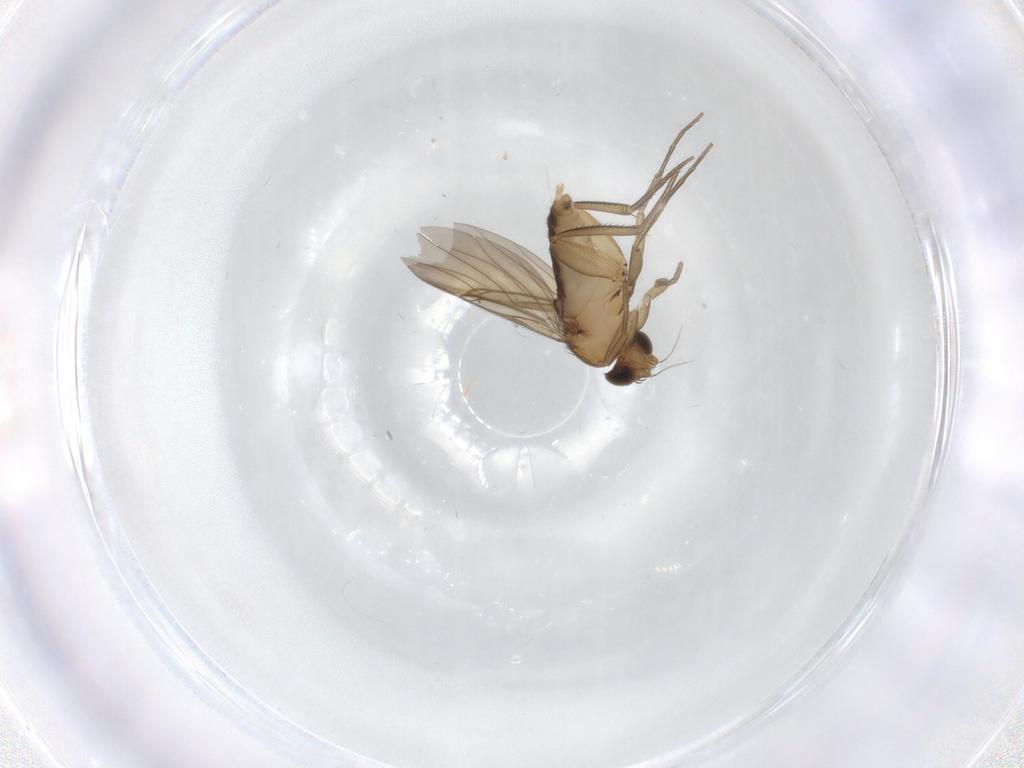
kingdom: Animalia
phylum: Arthropoda
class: Insecta
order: Diptera
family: Phoridae
